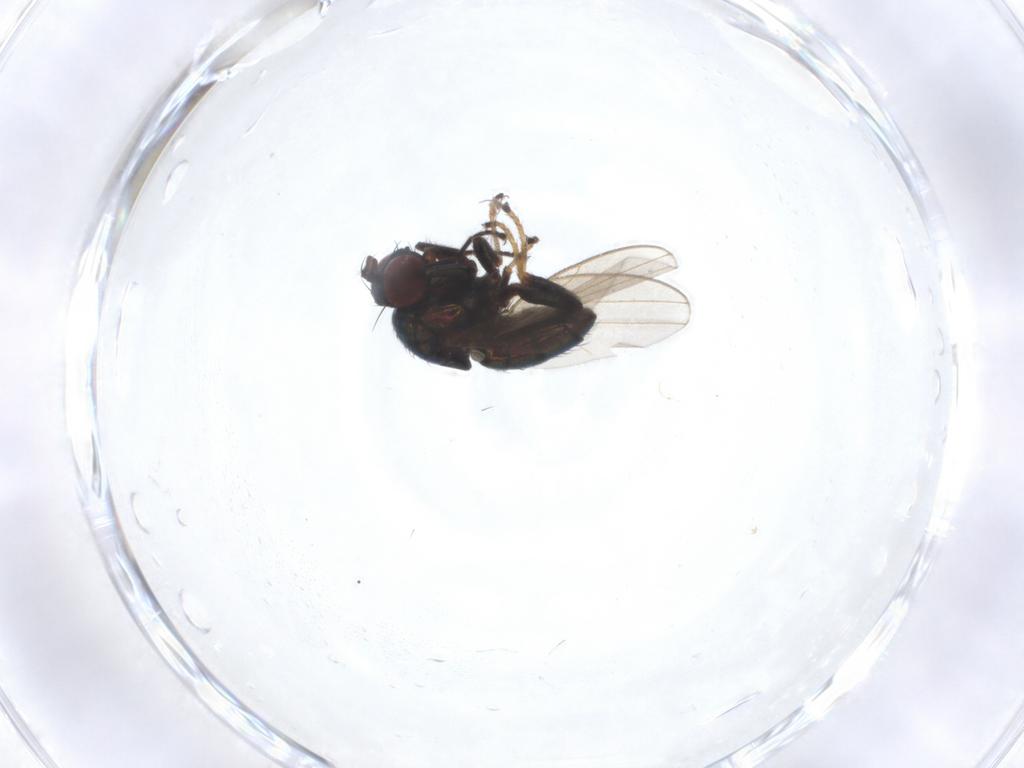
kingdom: Animalia
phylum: Arthropoda
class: Insecta
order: Diptera
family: Ephydridae
